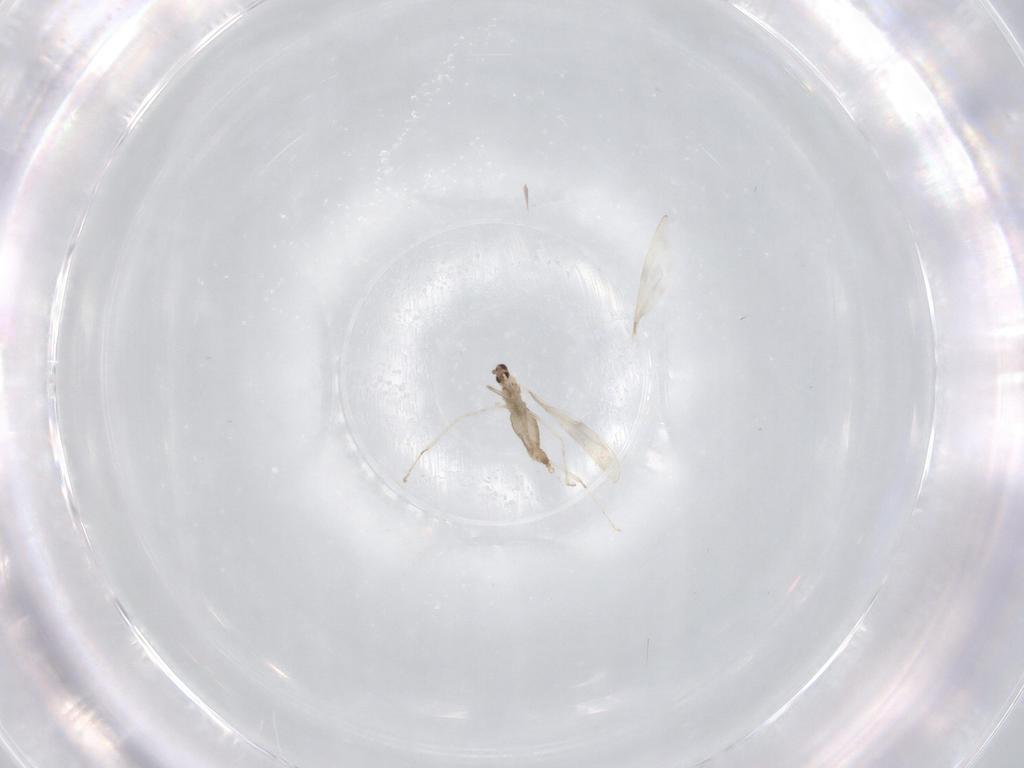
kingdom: Animalia
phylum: Arthropoda
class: Insecta
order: Diptera
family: Cecidomyiidae
